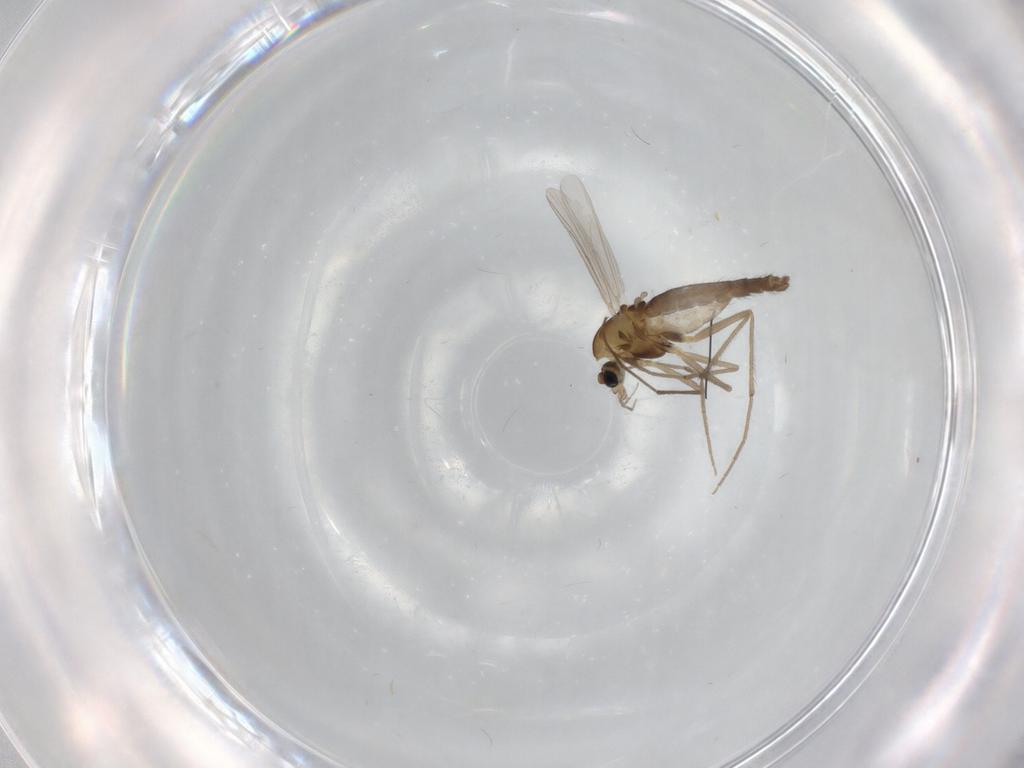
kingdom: Animalia
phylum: Arthropoda
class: Insecta
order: Diptera
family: Chironomidae
